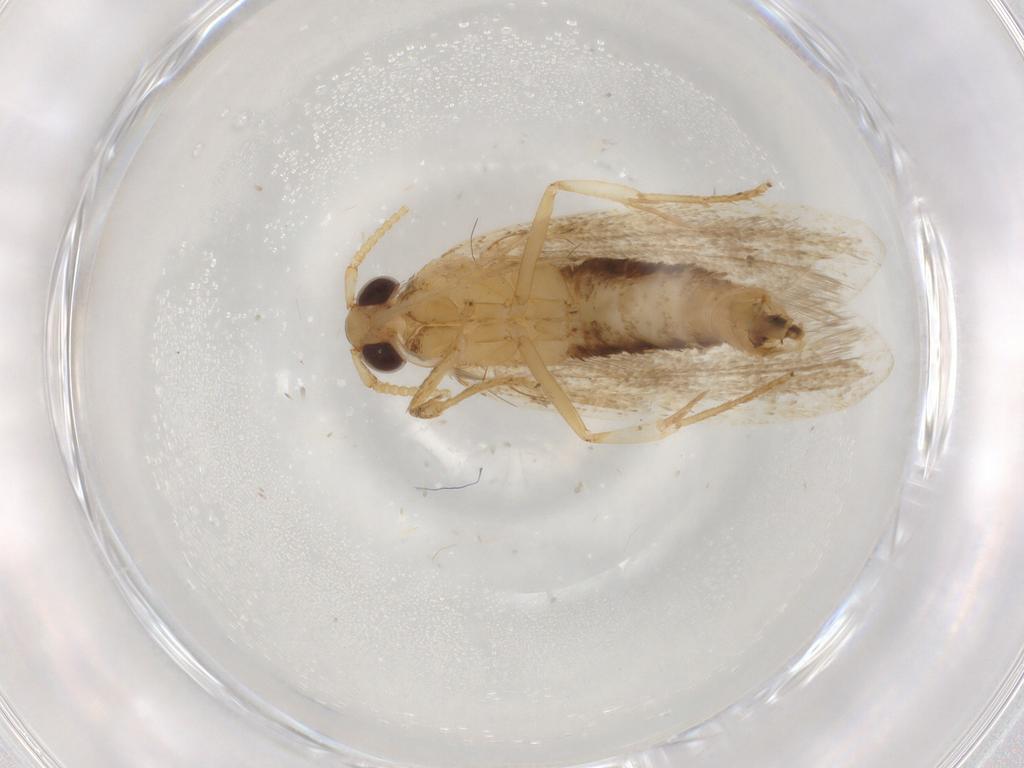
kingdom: Animalia
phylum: Arthropoda
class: Insecta
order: Lepidoptera
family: Lecithoceridae
